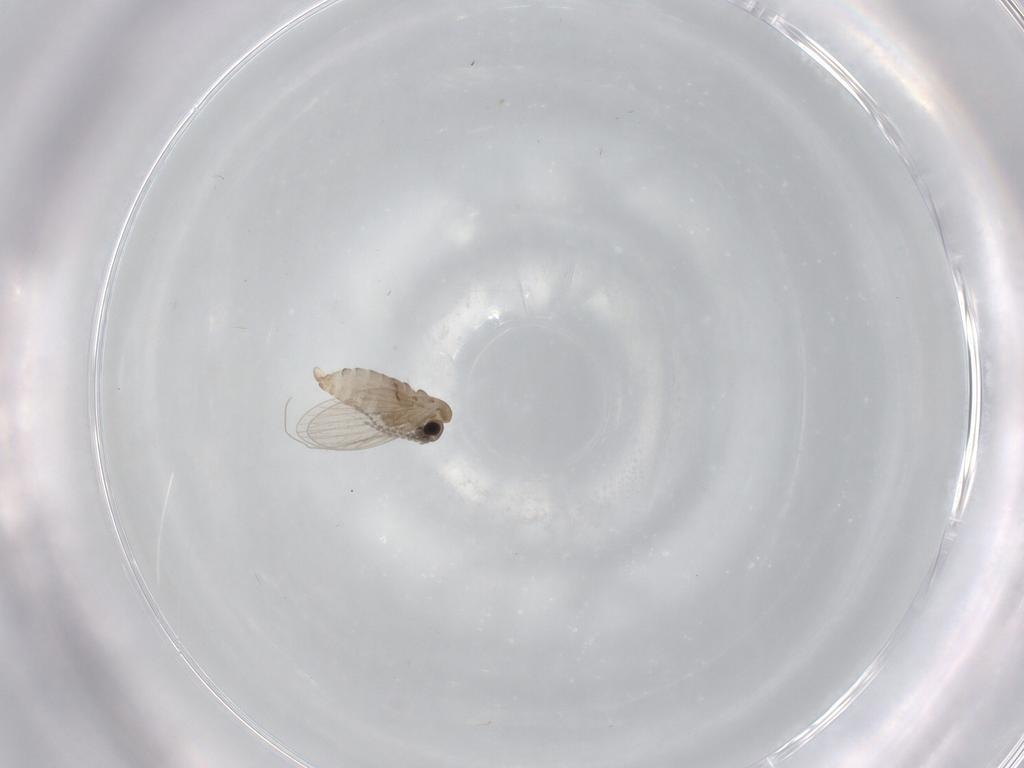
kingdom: Animalia
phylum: Arthropoda
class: Insecta
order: Diptera
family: Psychodidae
